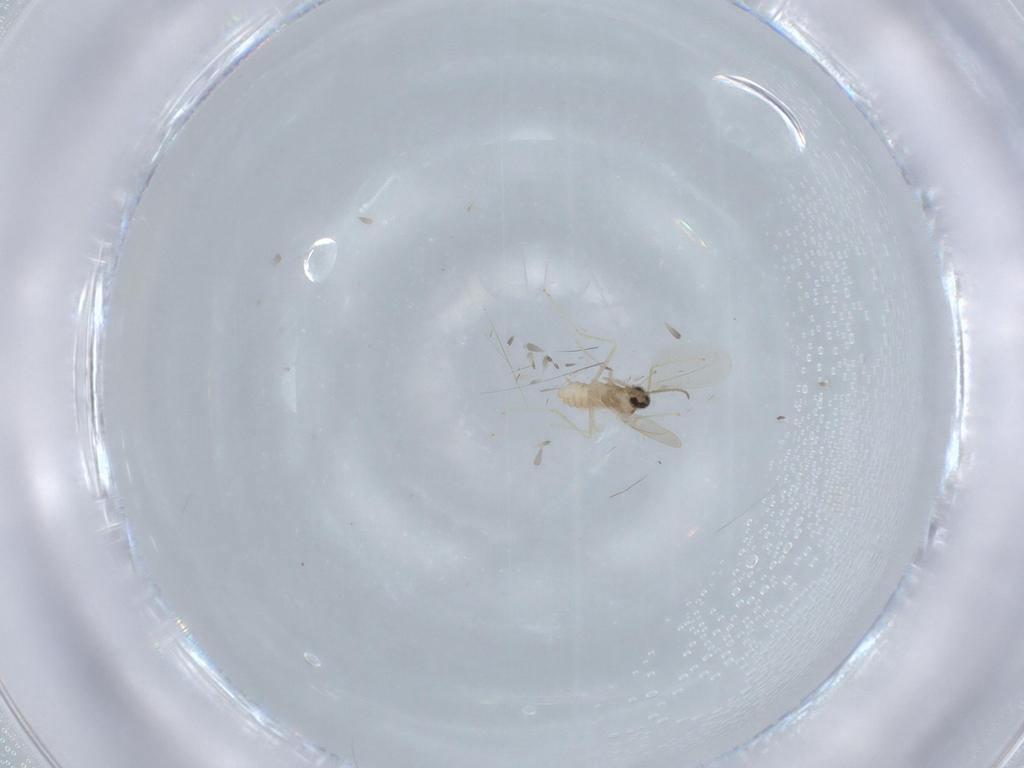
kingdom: Animalia
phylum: Arthropoda
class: Insecta
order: Diptera
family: Cecidomyiidae
